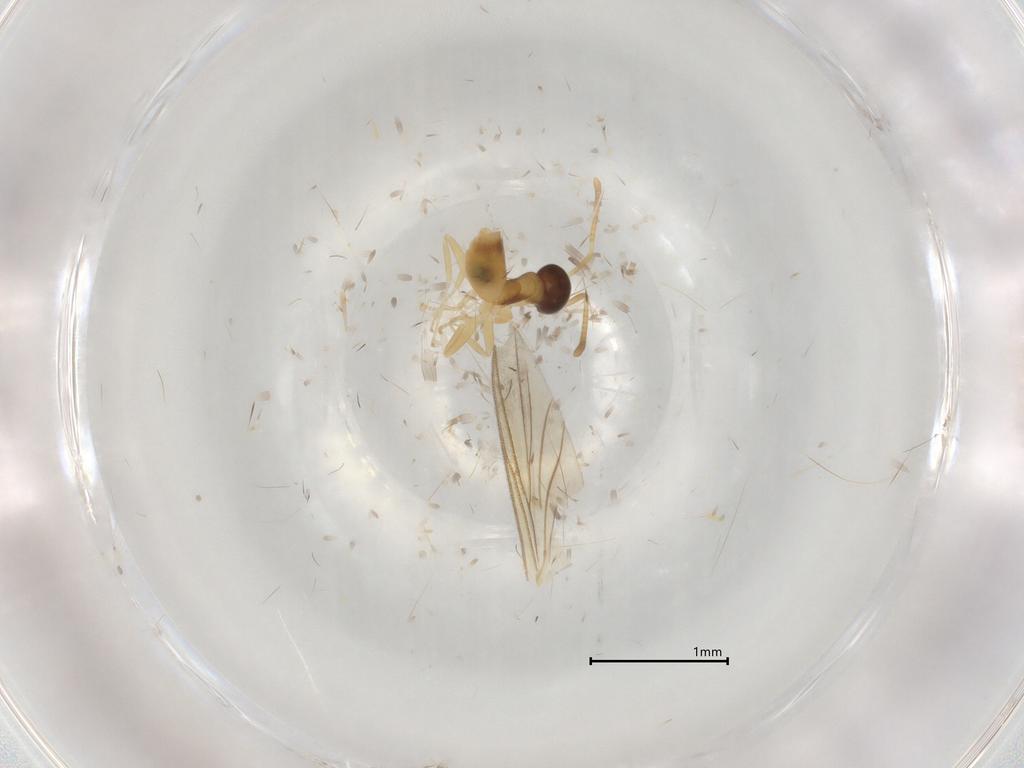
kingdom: Animalia
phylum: Arthropoda
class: Insecta
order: Hymenoptera
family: Formicidae
